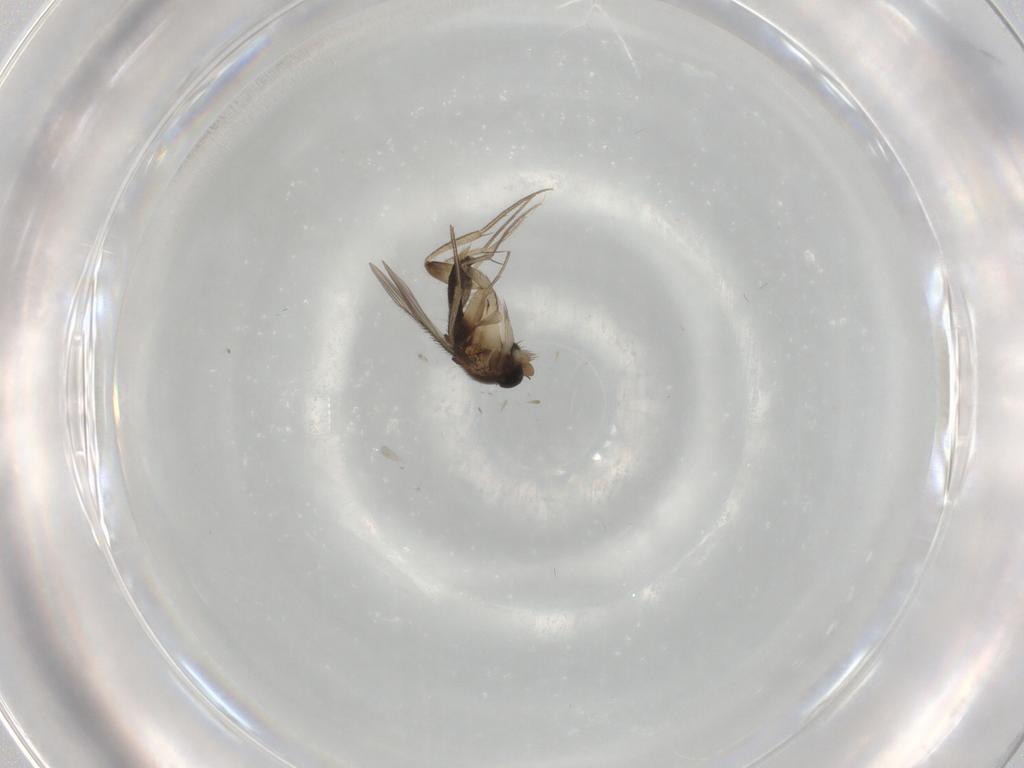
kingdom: Animalia
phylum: Arthropoda
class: Insecta
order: Diptera
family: Phoridae
